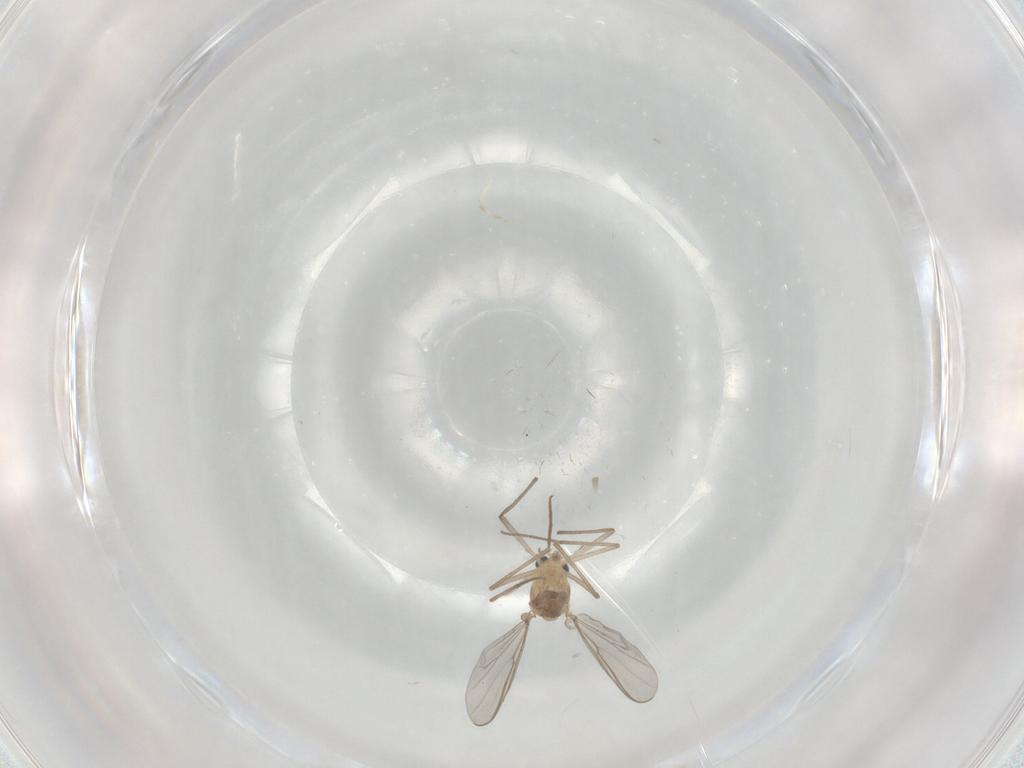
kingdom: Animalia
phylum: Arthropoda
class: Insecta
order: Diptera
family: Chironomidae
